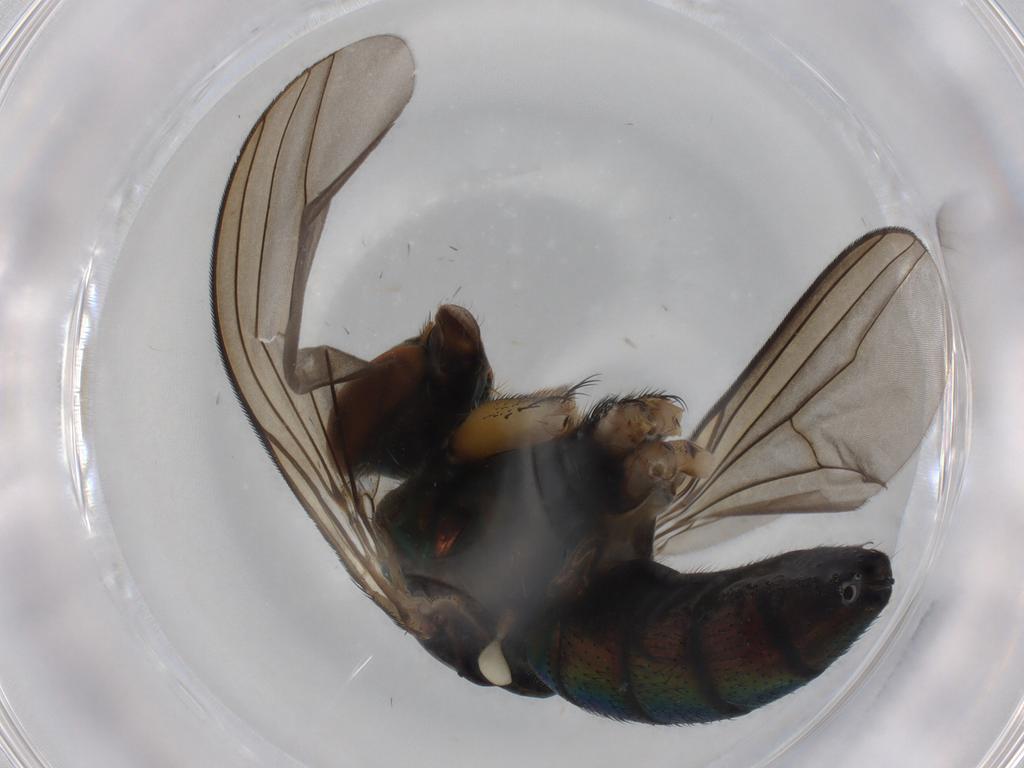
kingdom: Animalia
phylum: Arthropoda
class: Insecta
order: Diptera
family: Dolichopodidae
